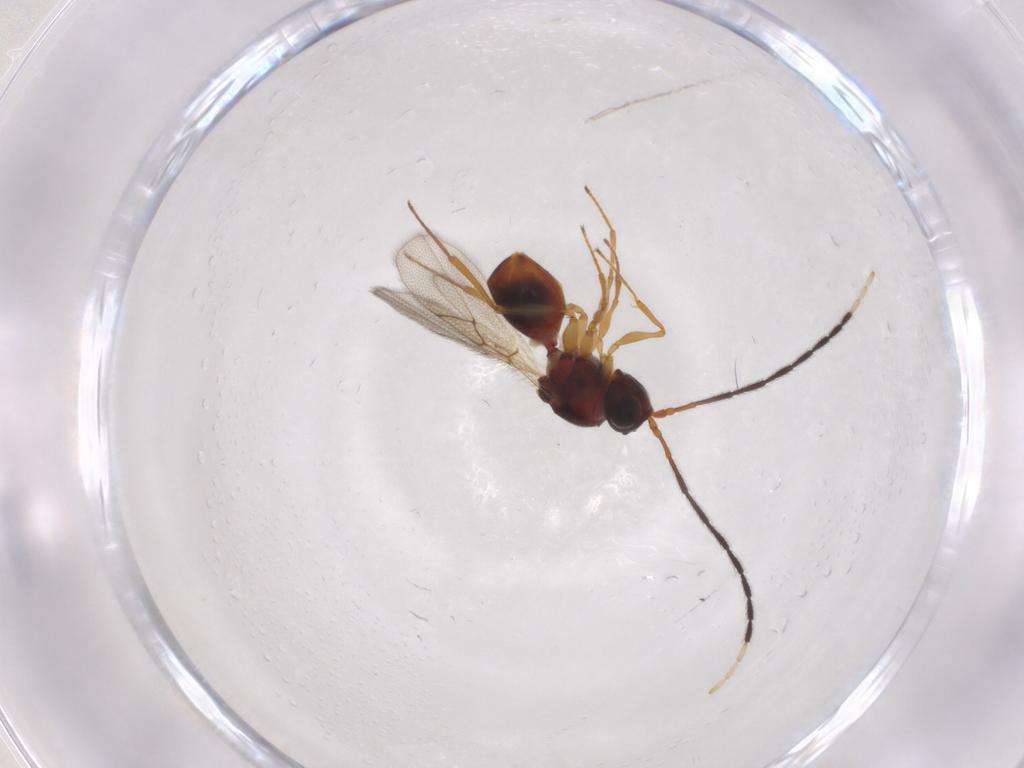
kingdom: Animalia
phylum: Arthropoda
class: Insecta
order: Hymenoptera
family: Figitidae
